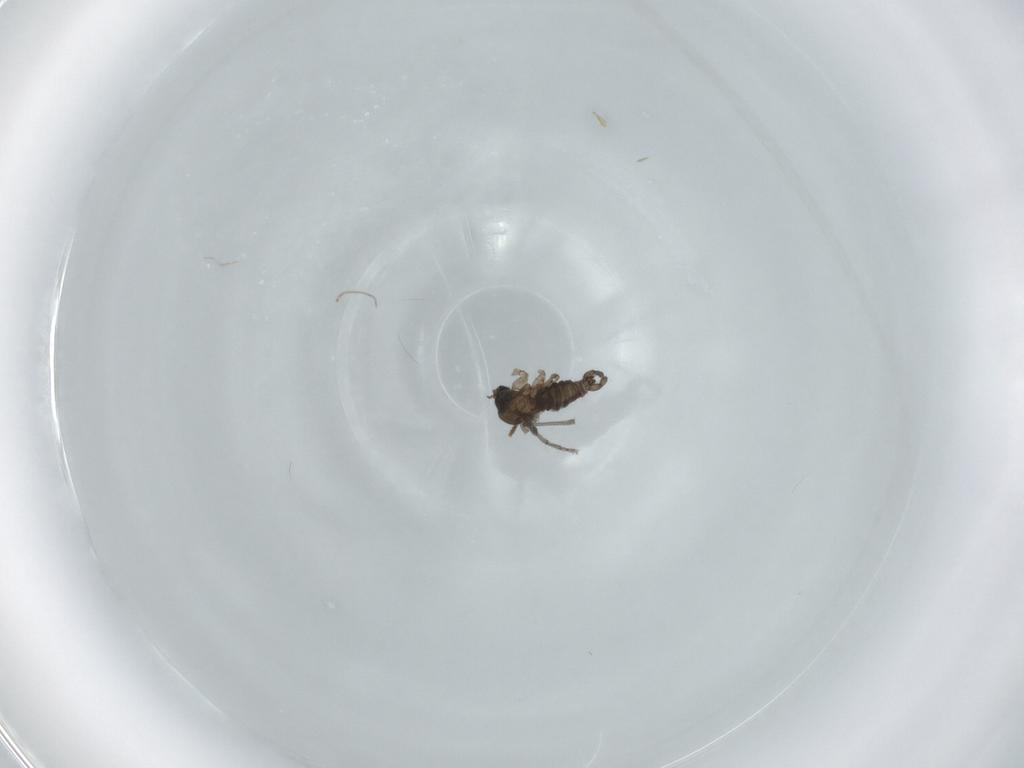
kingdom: Animalia
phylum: Arthropoda
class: Insecta
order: Diptera
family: Sciaridae
